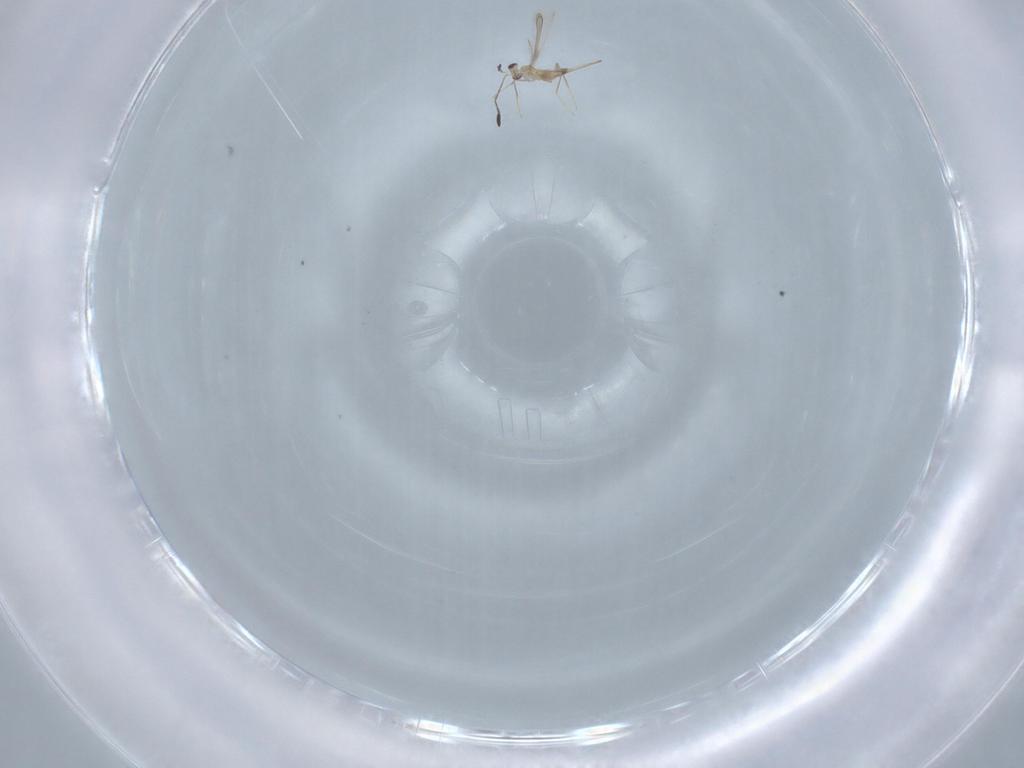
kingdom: Animalia
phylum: Arthropoda
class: Insecta
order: Hymenoptera
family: Mymaridae
